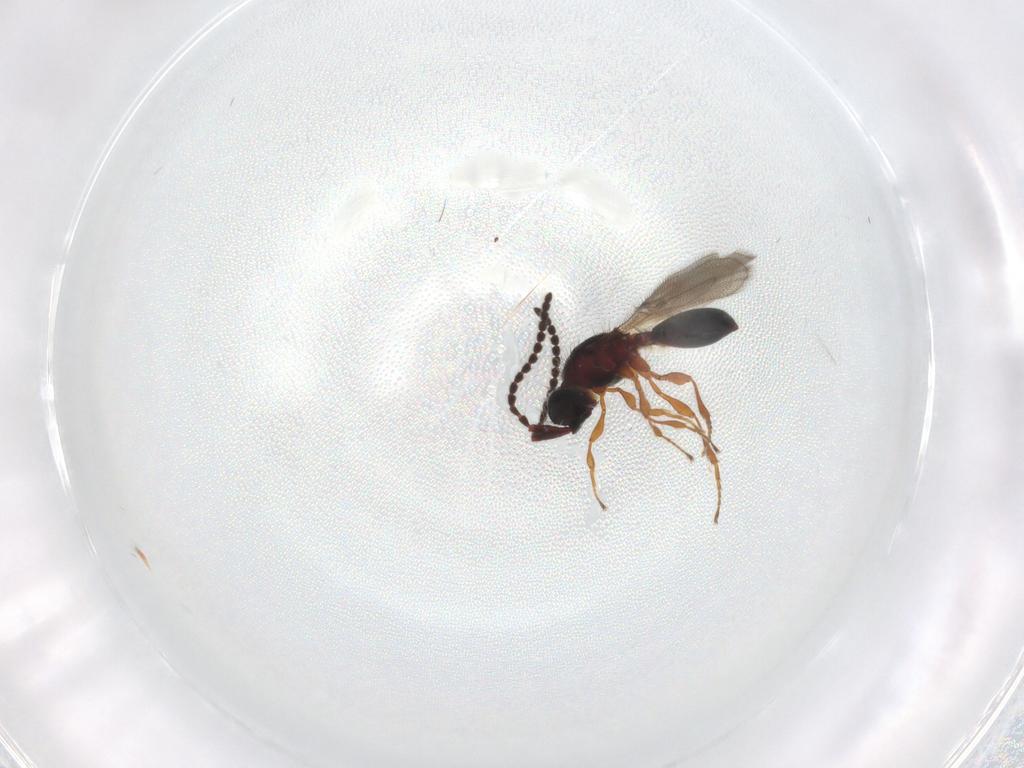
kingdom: Animalia
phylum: Arthropoda
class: Insecta
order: Hymenoptera
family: Diapriidae
